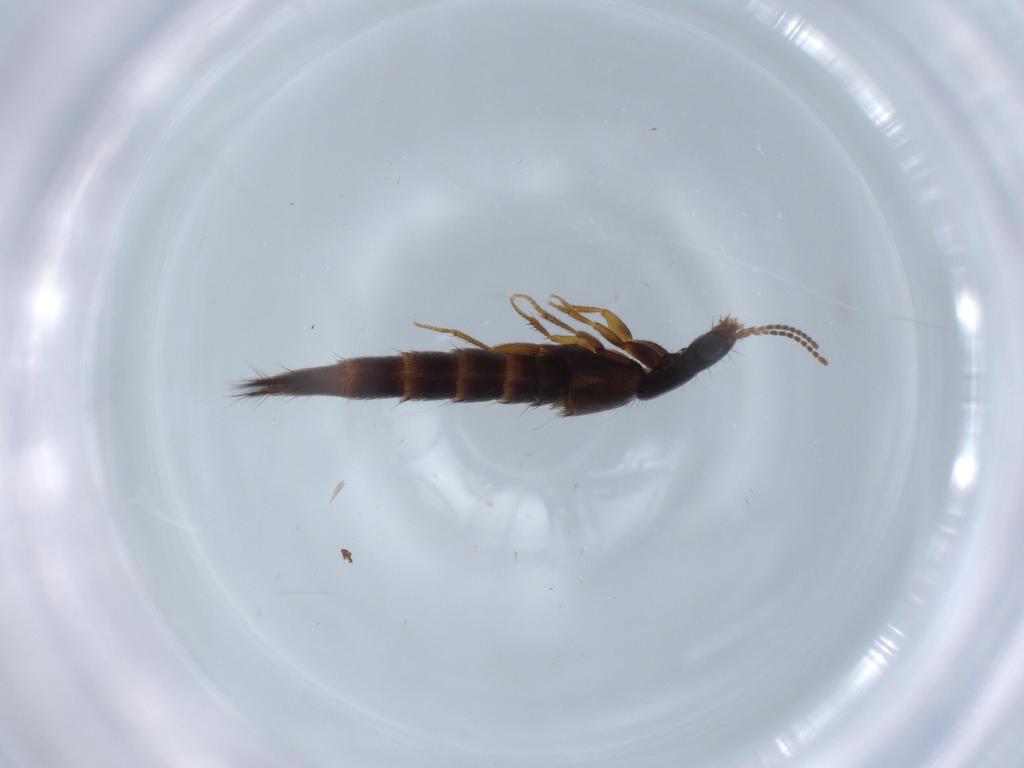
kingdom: Animalia
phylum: Arthropoda
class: Insecta
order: Coleoptera
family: Staphylinidae
